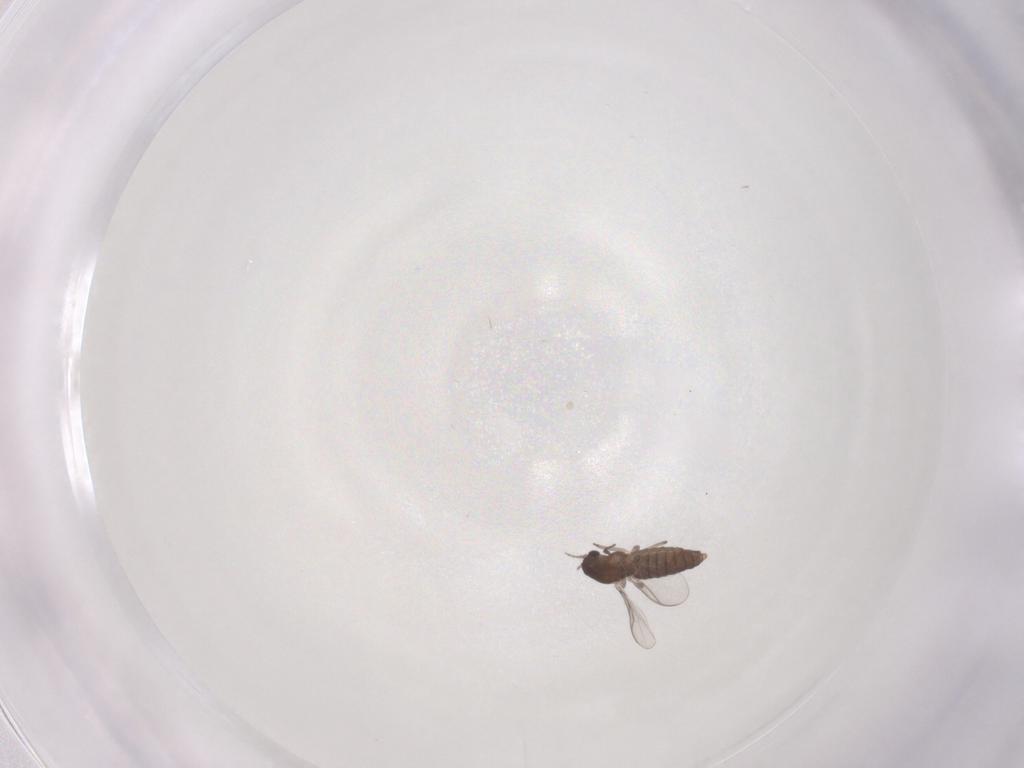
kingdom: Animalia
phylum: Arthropoda
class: Insecta
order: Diptera
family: Chironomidae
